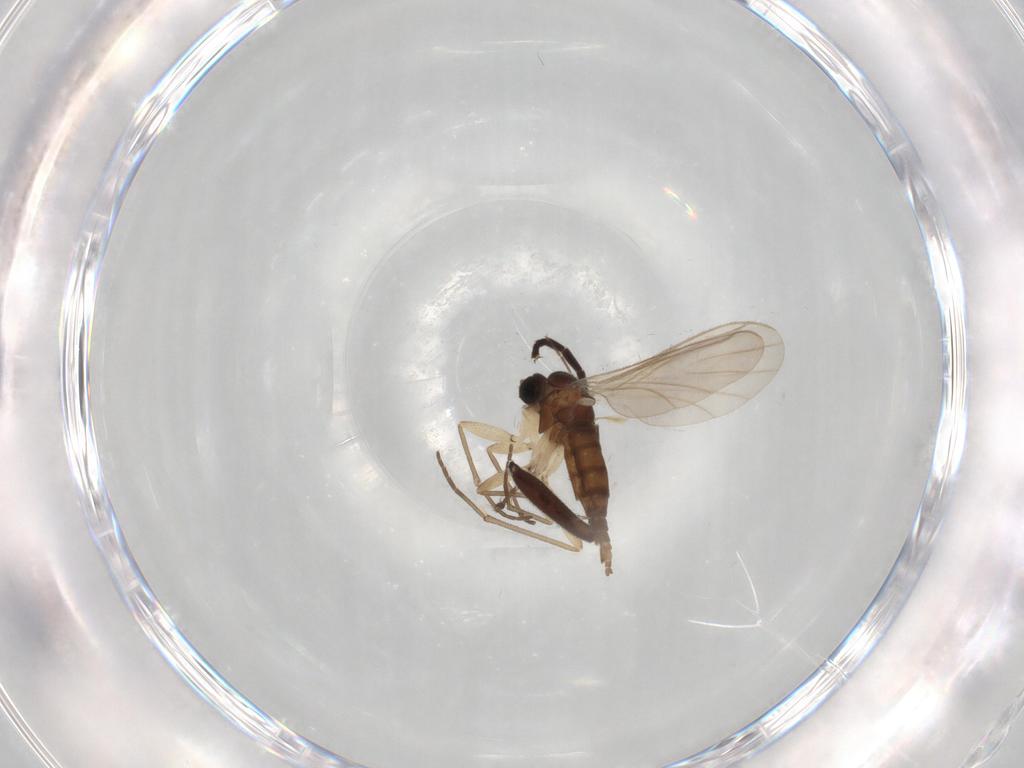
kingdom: Animalia
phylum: Arthropoda
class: Insecta
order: Diptera
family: Sciaridae
